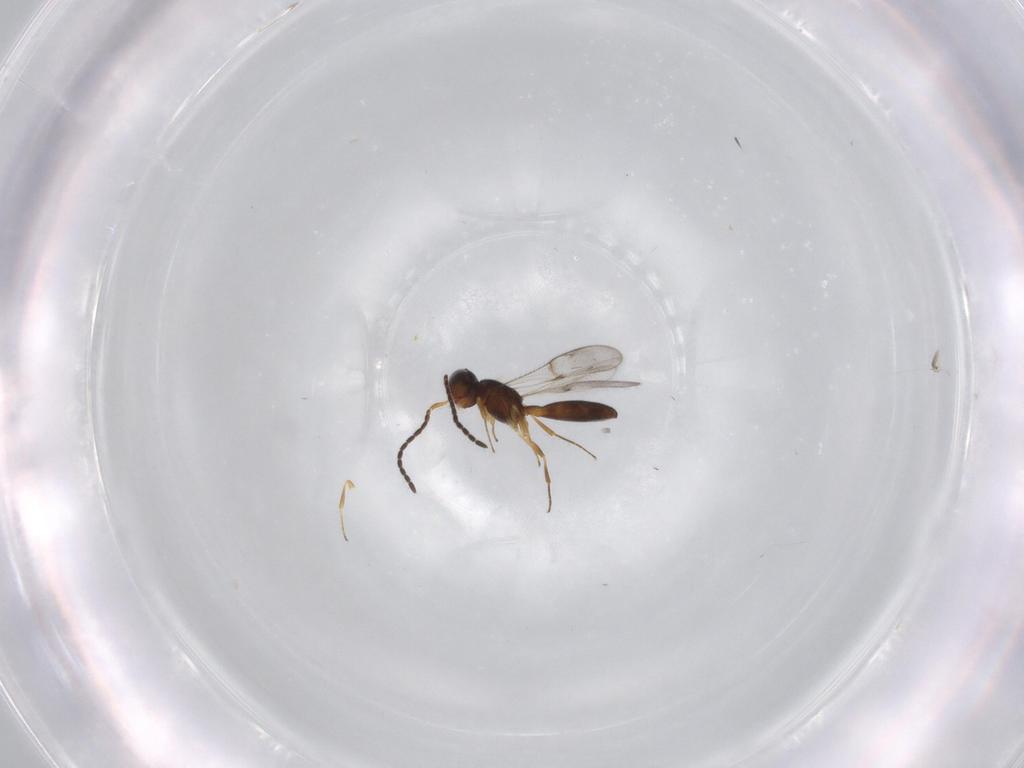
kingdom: Animalia
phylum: Arthropoda
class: Insecta
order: Hymenoptera
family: Scelionidae
